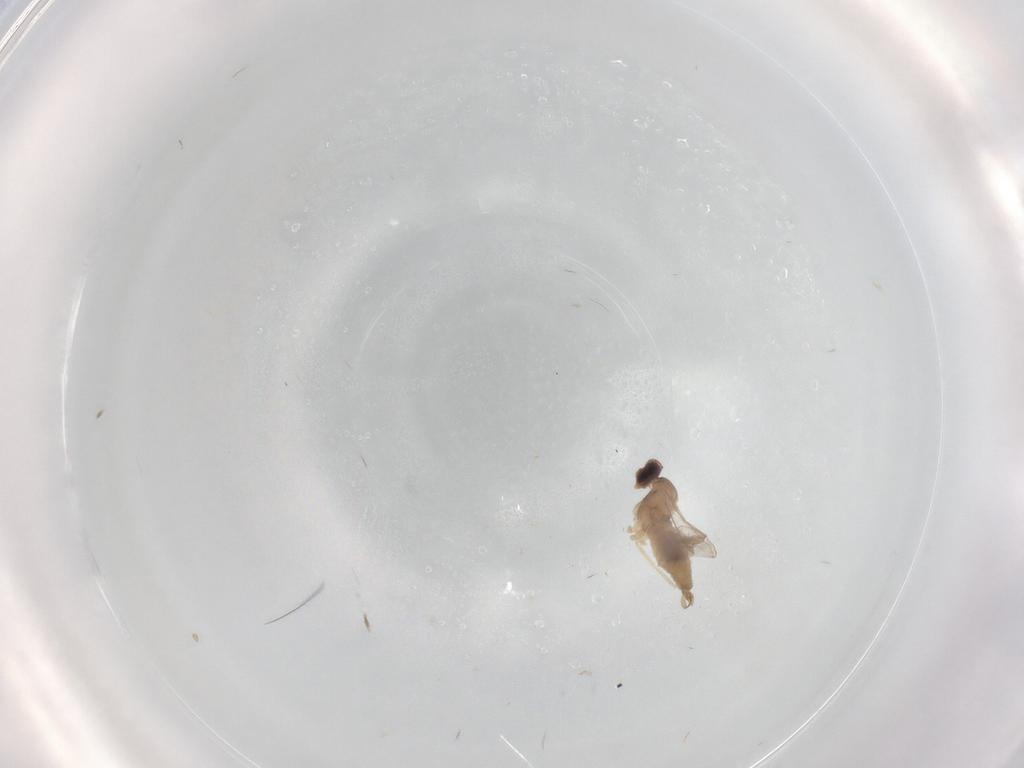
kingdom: Animalia
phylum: Arthropoda
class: Insecta
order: Diptera
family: Cecidomyiidae
